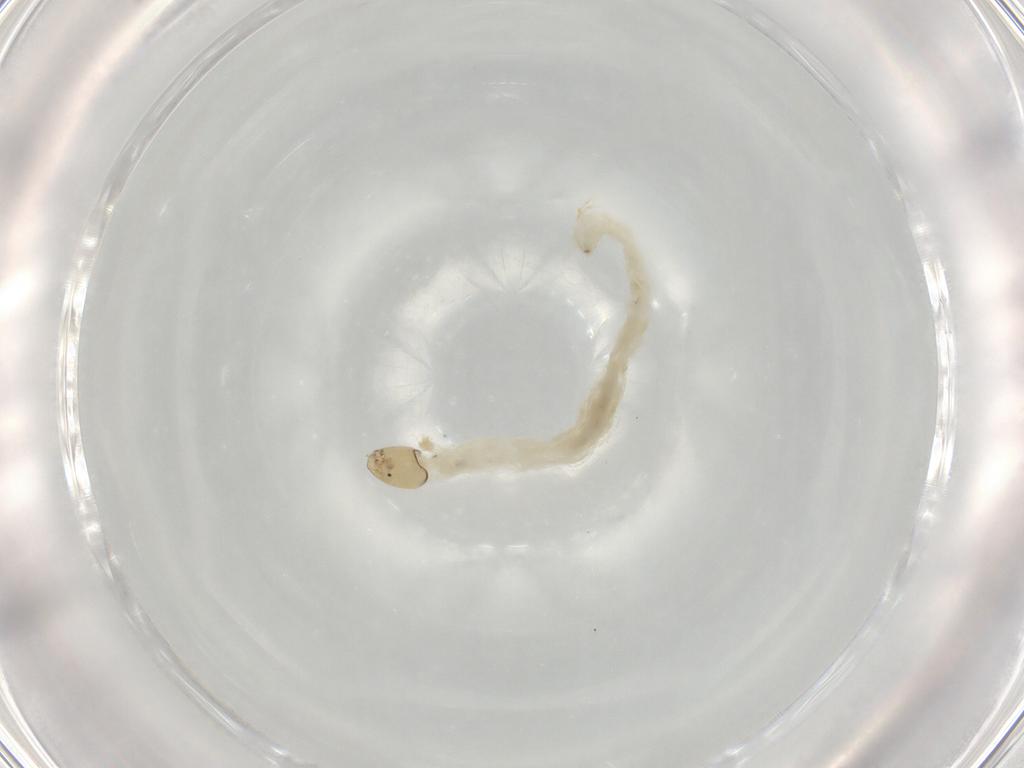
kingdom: Animalia
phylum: Arthropoda
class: Insecta
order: Diptera
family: Chironomidae
